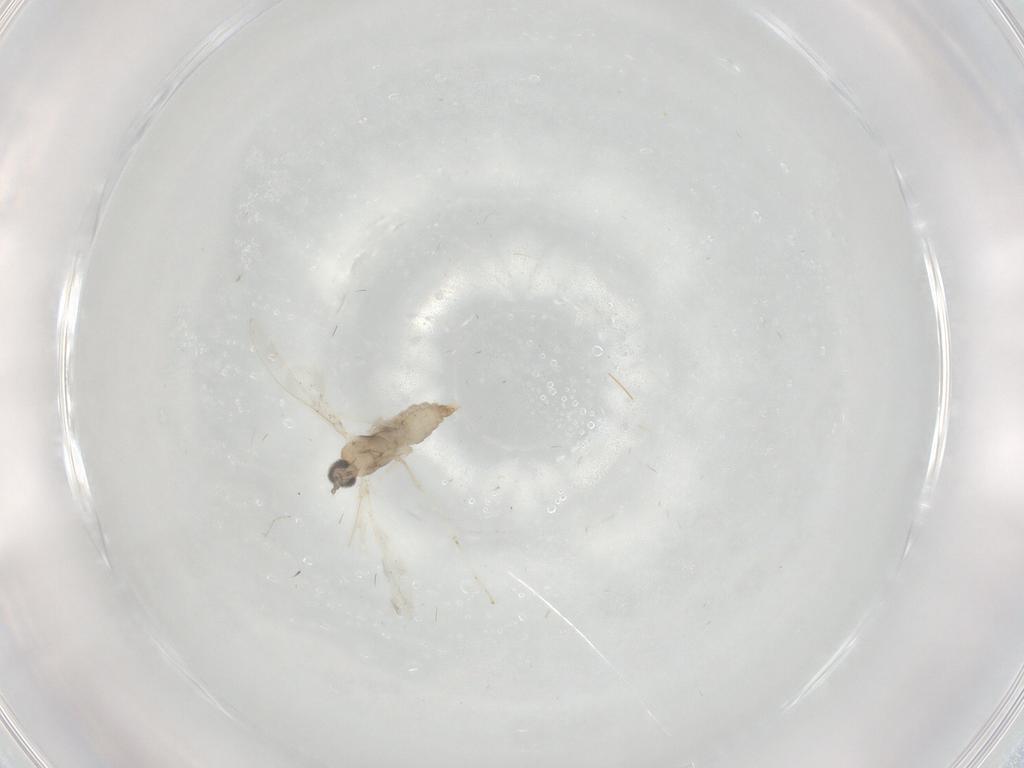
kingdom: Animalia
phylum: Arthropoda
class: Insecta
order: Diptera
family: Cecidomyiidae
